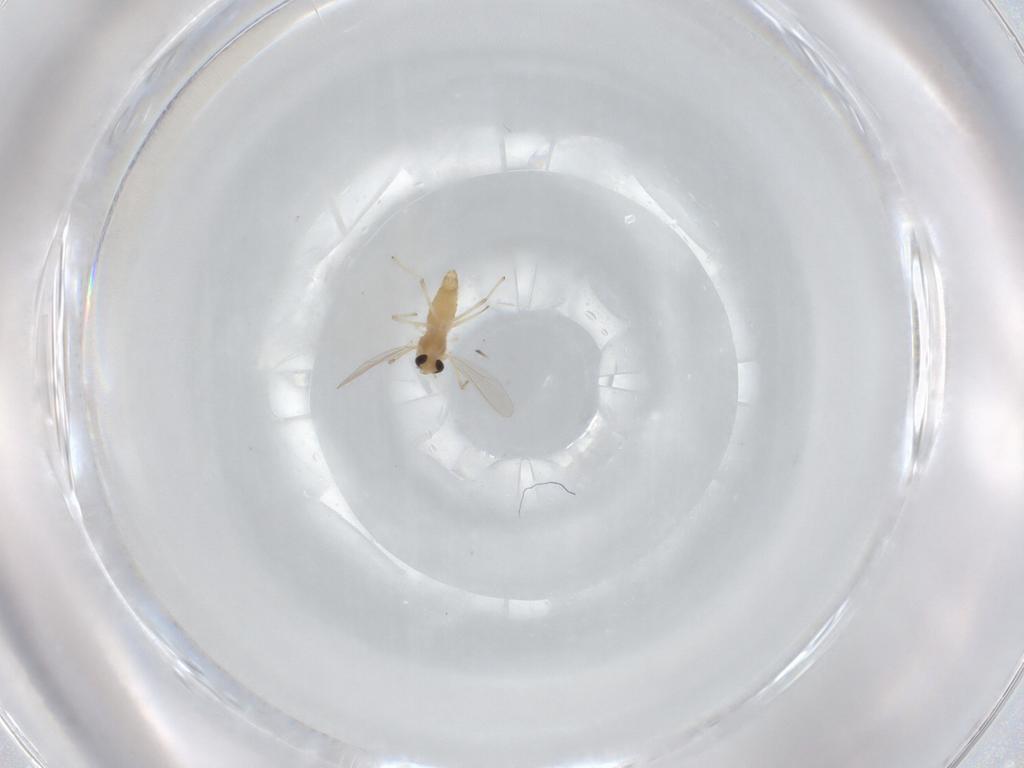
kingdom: Animalia
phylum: Arthropoda
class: Insecta
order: Diptera
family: Chironomidae
